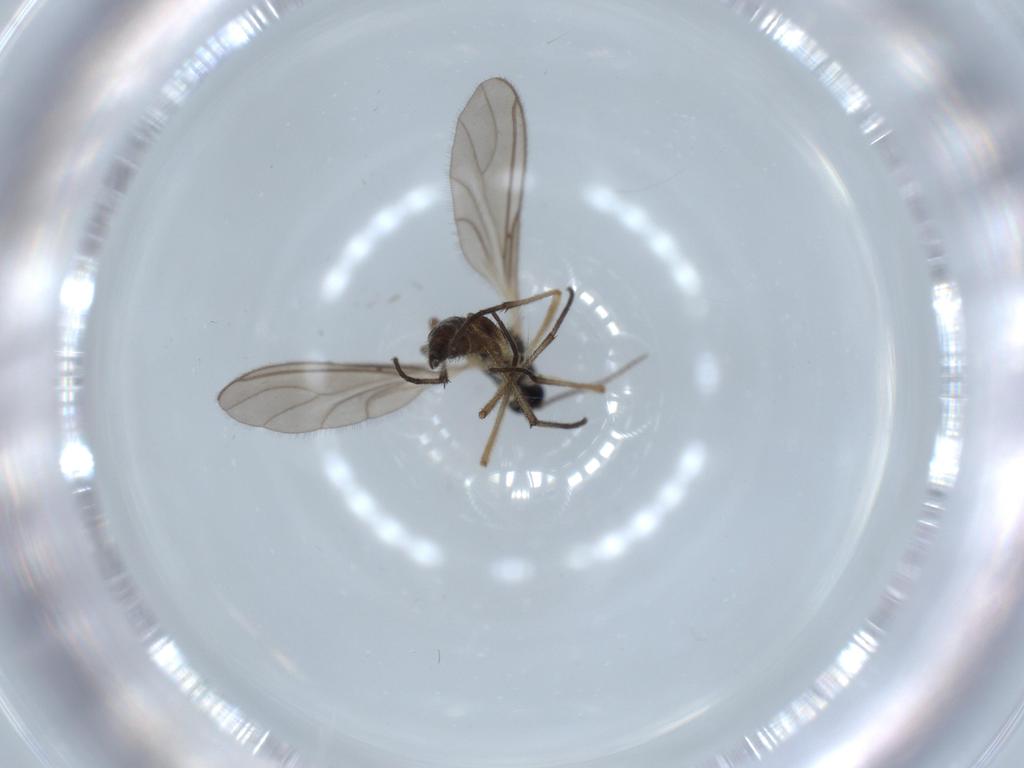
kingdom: Animalia
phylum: Arthropoda
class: Insecta
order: Diptera
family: Sciaridae
